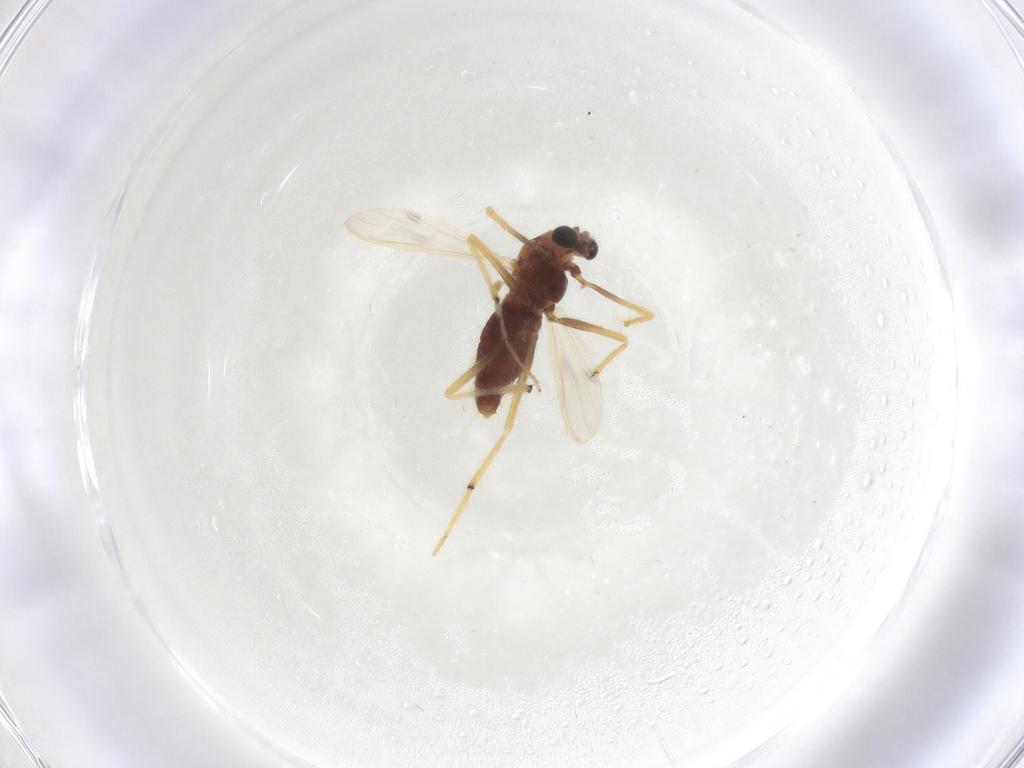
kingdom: Animalia
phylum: Arthropoda
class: Insecta
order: Diptera
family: Chironomidae
